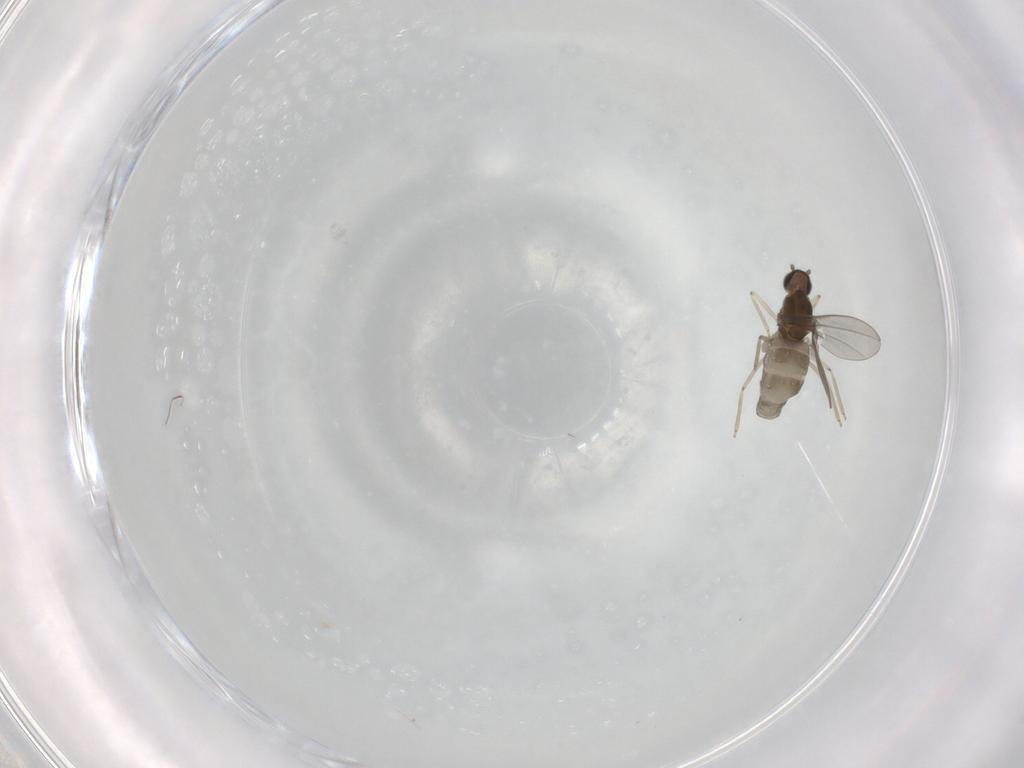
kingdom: Animalia
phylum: Arthropoda
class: Insecta
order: Diptera
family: Cecidomyiidae
